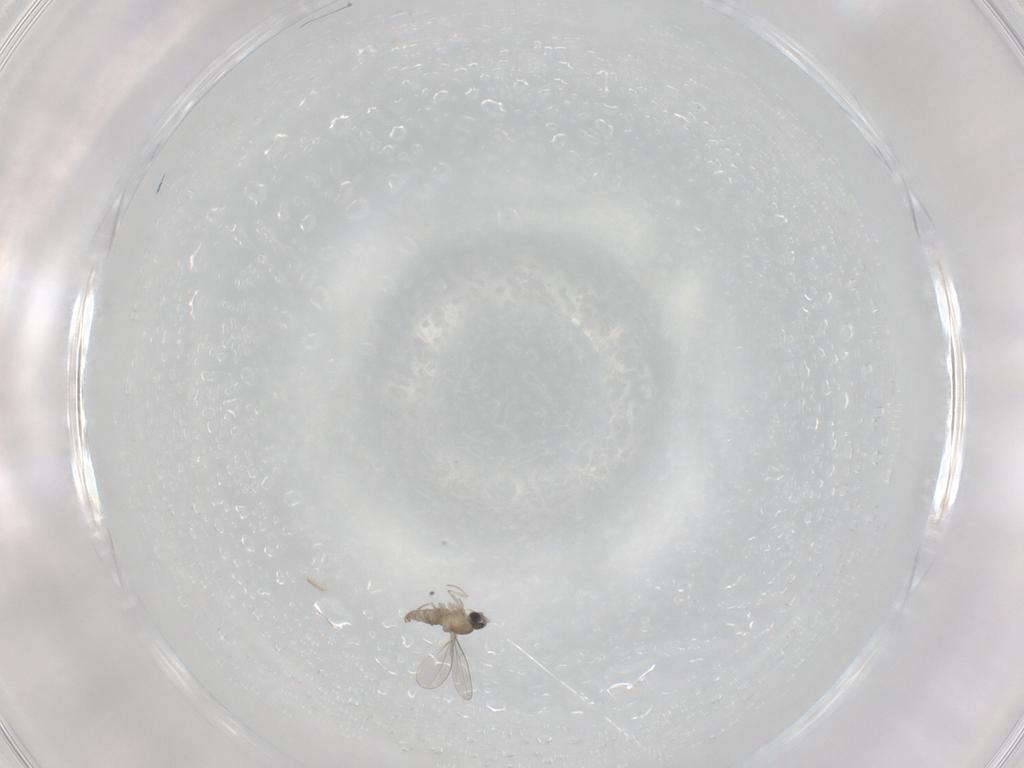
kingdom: Animalia
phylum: Arthropoda
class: Insecta
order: Diptera
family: Cecidomyiidae
